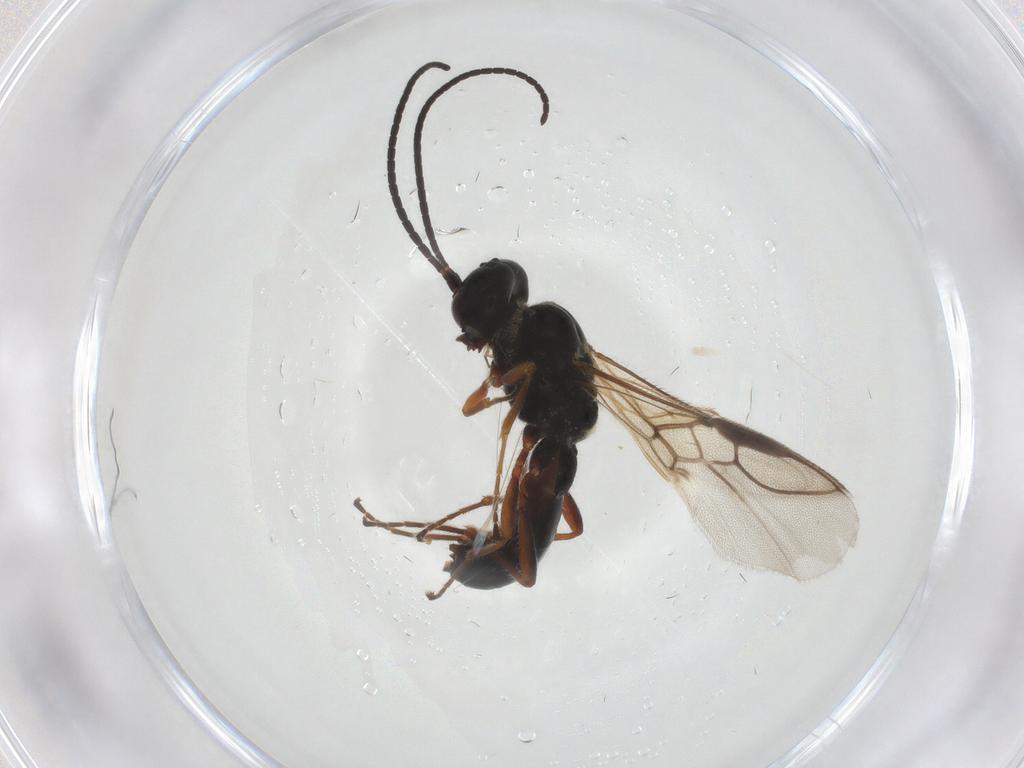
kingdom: Animalia
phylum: Arthropoda
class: Insecta
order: Hymenoptera
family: Braconidae
